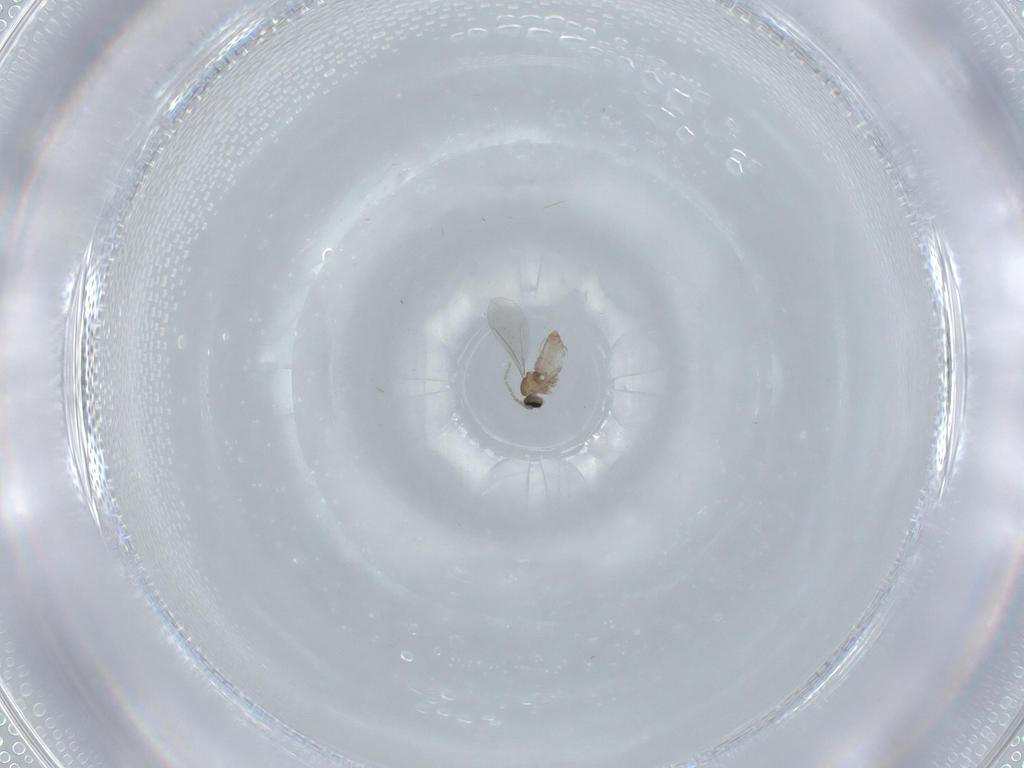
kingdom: Animalia
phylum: Arthropoda
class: Insecta
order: Diptera
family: Cecidomyiidae
